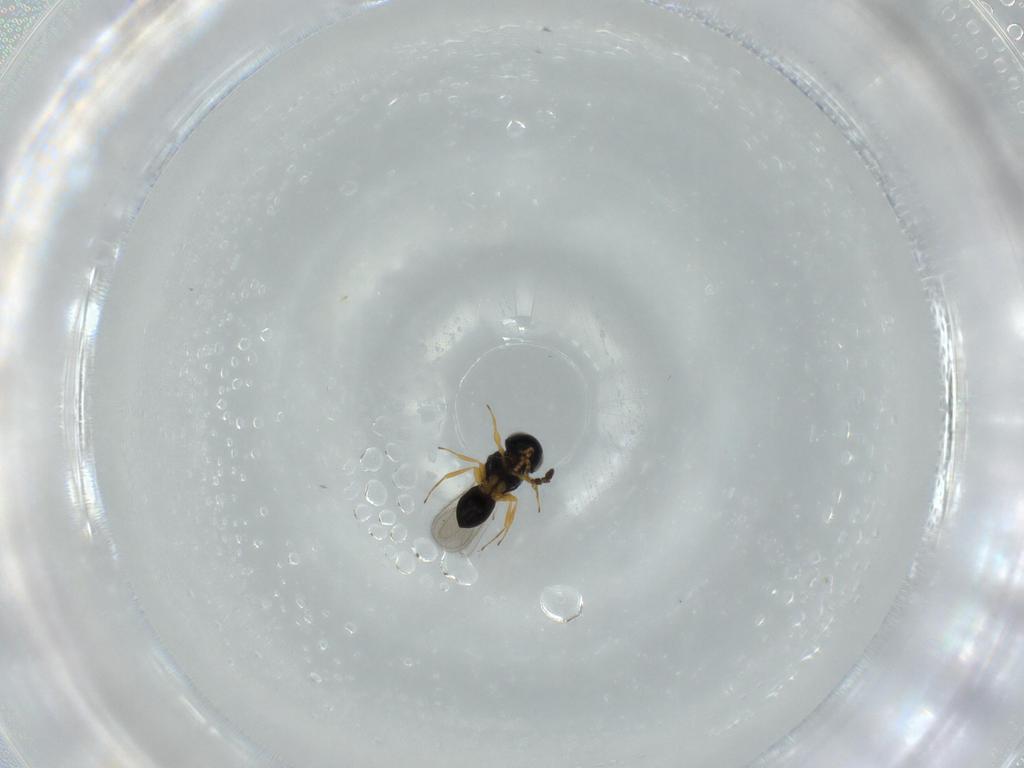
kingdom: Animalia
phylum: Arthropoda
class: Insecta
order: Hymenoptera
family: Scelionidae
